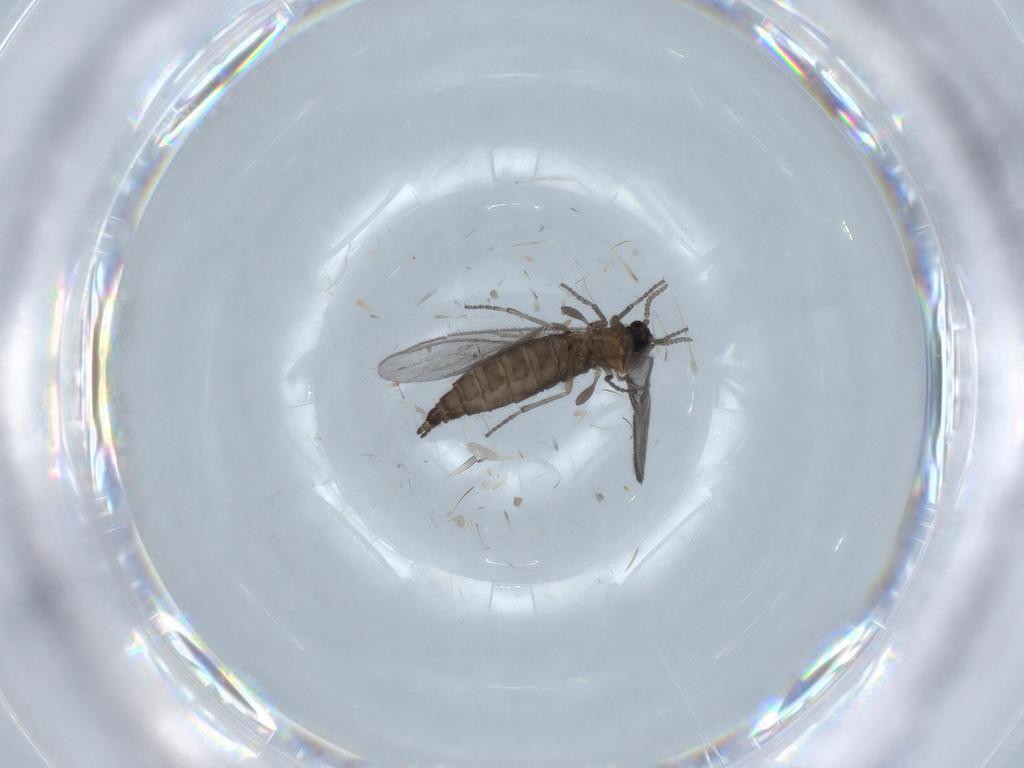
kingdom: Animalia
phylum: Arthropoda
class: Insecta
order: Diptera
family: Sciaridae
